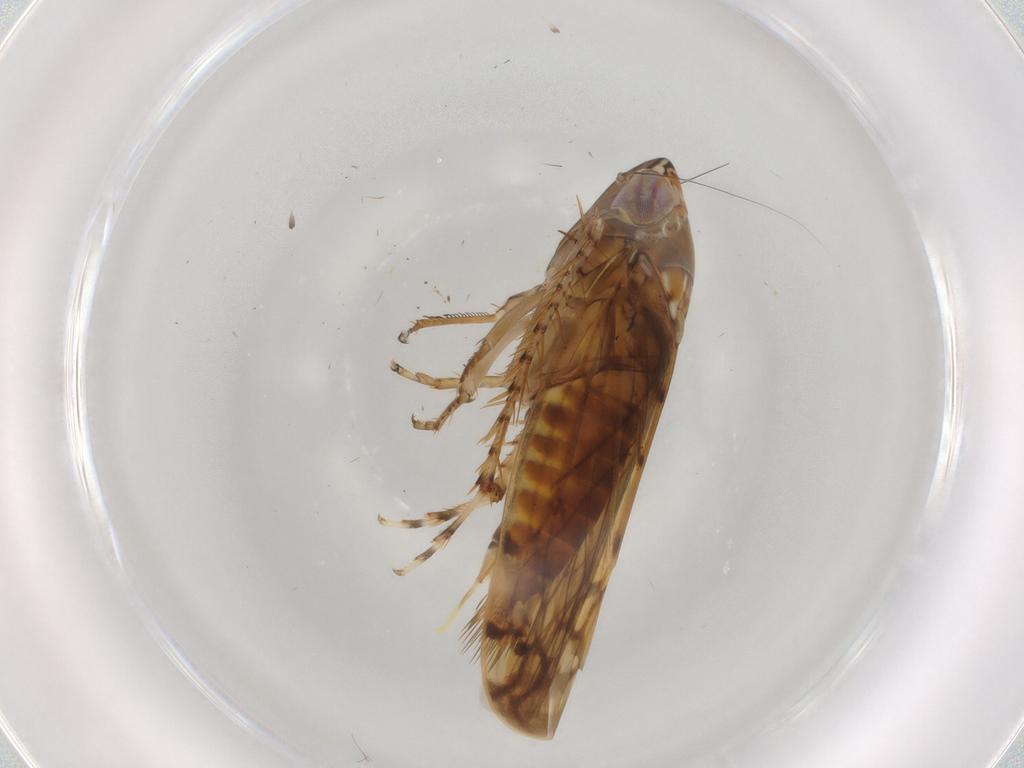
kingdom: Animalia
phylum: Arthropoda
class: Insecta
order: Hemiptera
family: Cicadellidae
